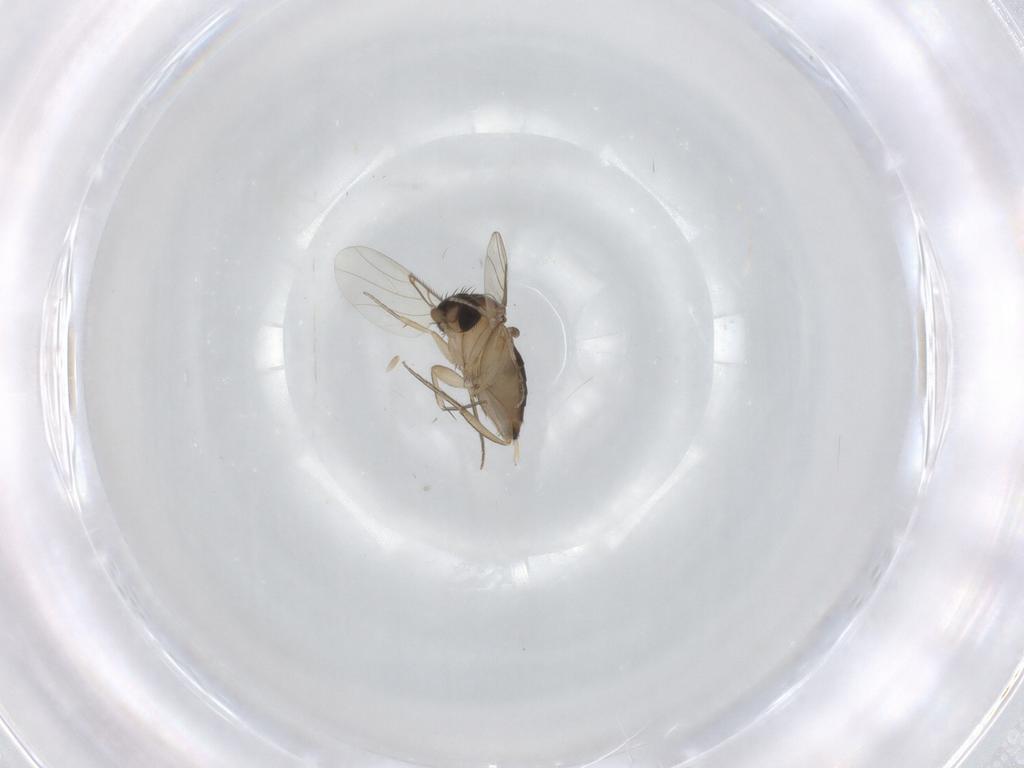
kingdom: Animalia
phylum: Arthropoda
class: Insecta
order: Diptera
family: Phoridae
